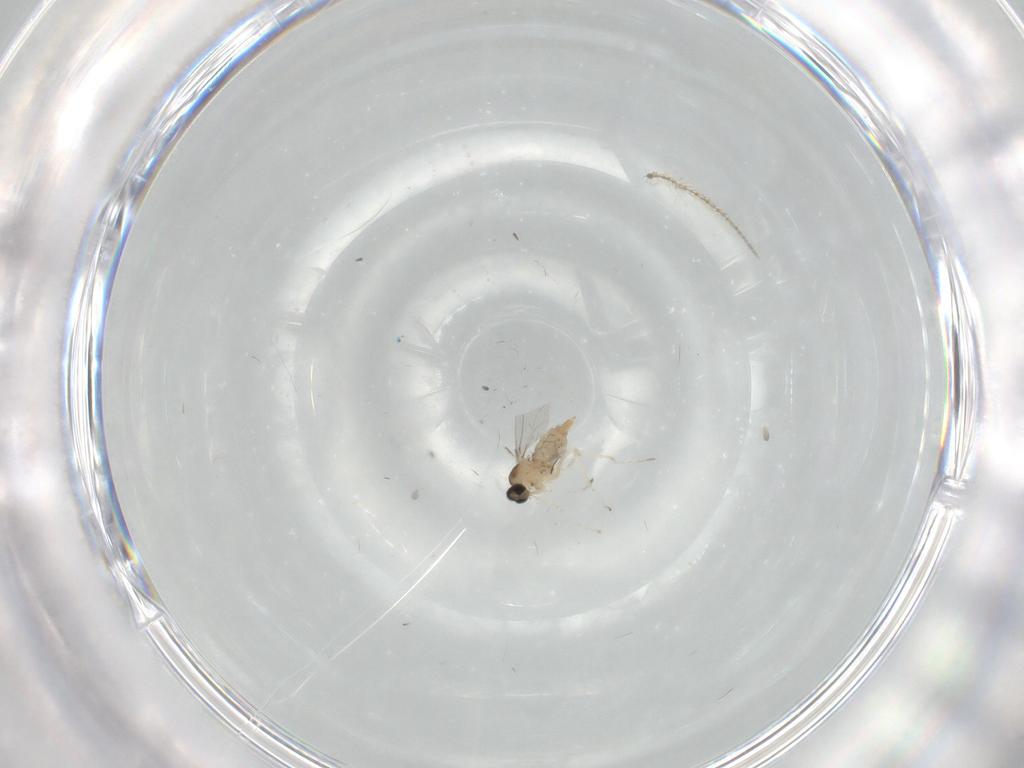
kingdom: Animalia
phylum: Arthropoda
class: Insecta
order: Diptera
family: Cecidomyiidae
